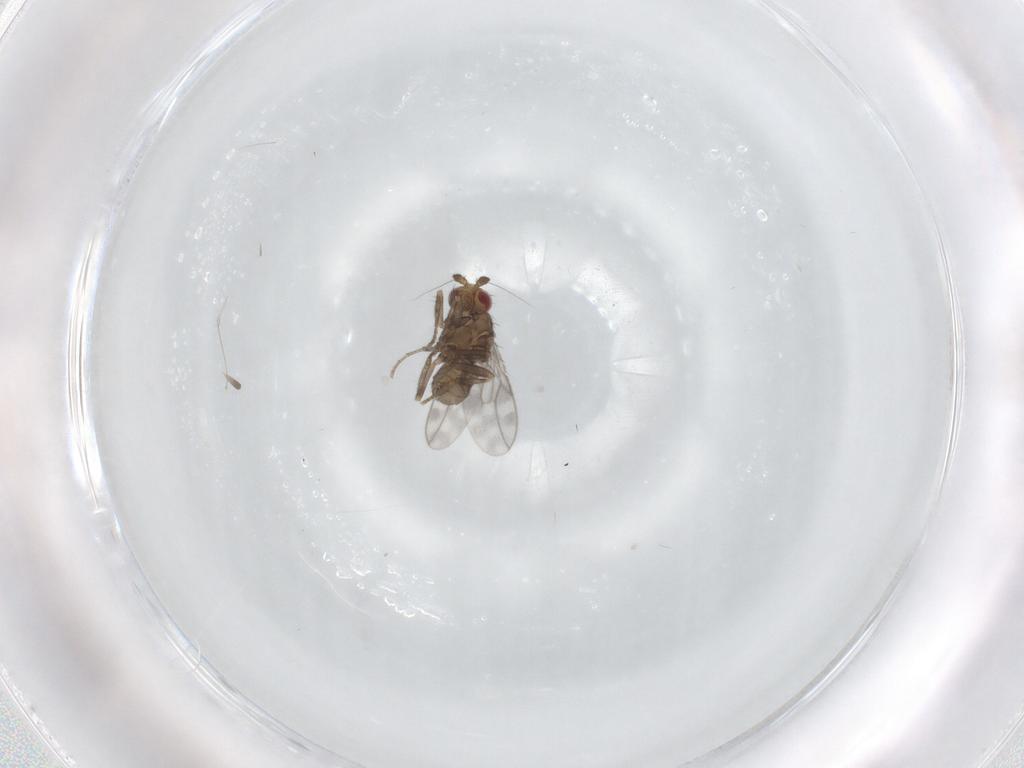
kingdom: Animalia
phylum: Arthropoda
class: Insecta
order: Diptera
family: Sphaeroceridae
